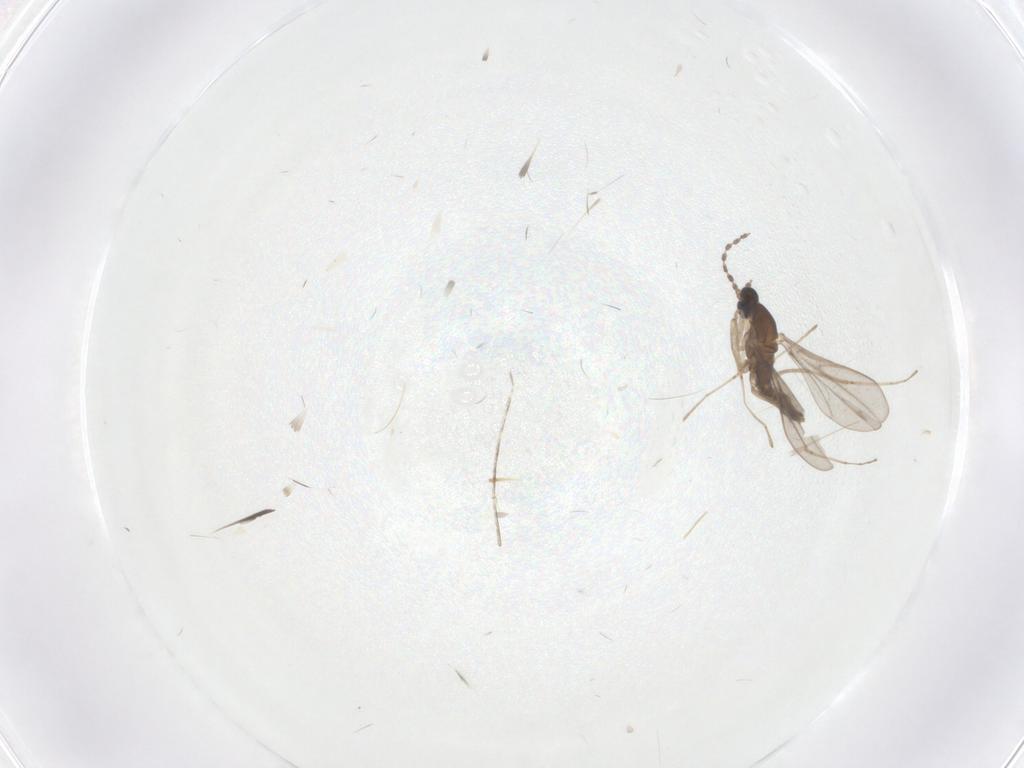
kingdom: Animalia
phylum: Arthropoda
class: Insecta
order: Diptera
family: Cecidomyiidae
